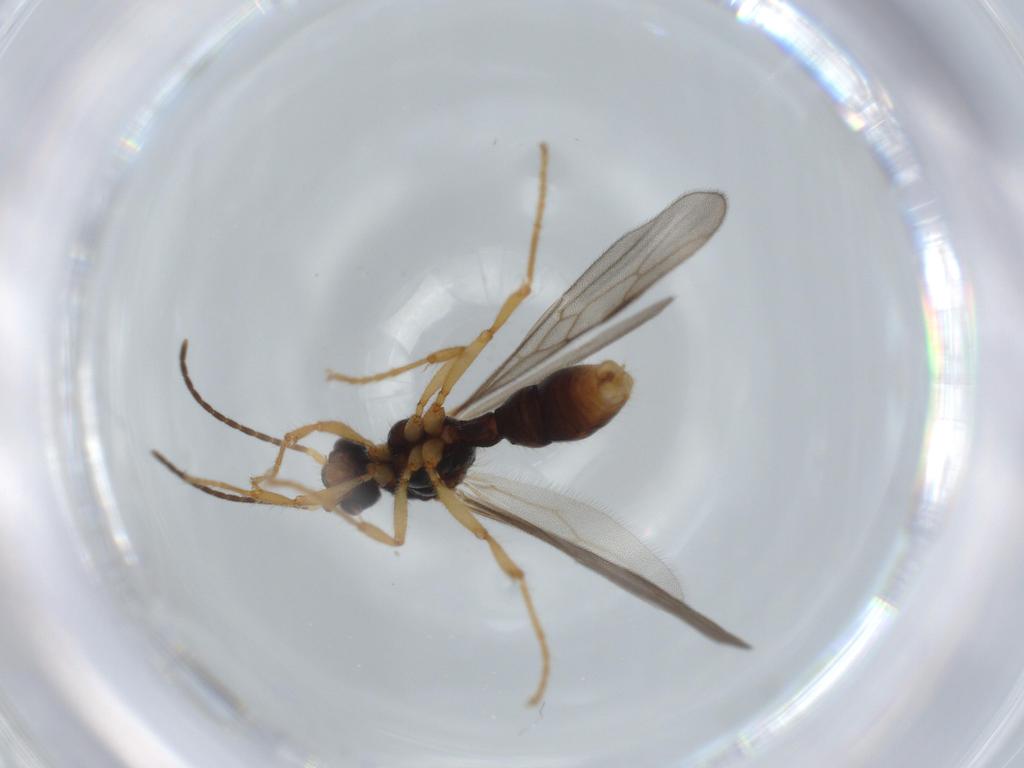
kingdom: Animalia
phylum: Arthropoda
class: Insecta
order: Hymenoptera
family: Formicidae
